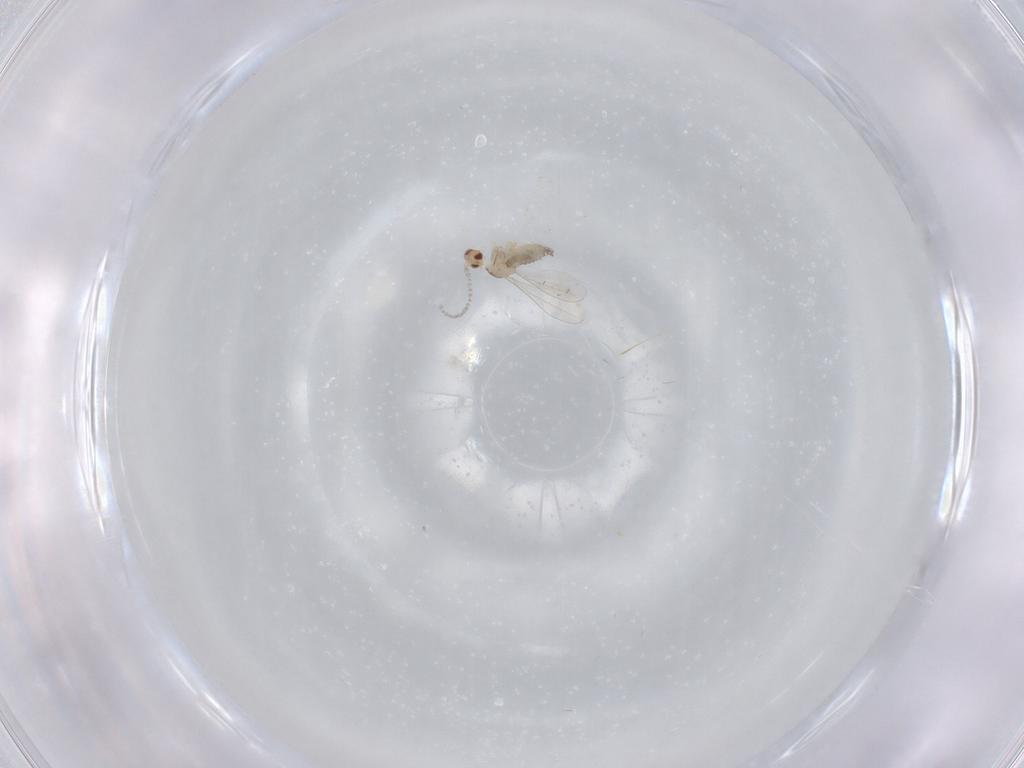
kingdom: Animalia
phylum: Arthropoda
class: Insecta
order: Diptera
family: Cecidomyiidae
